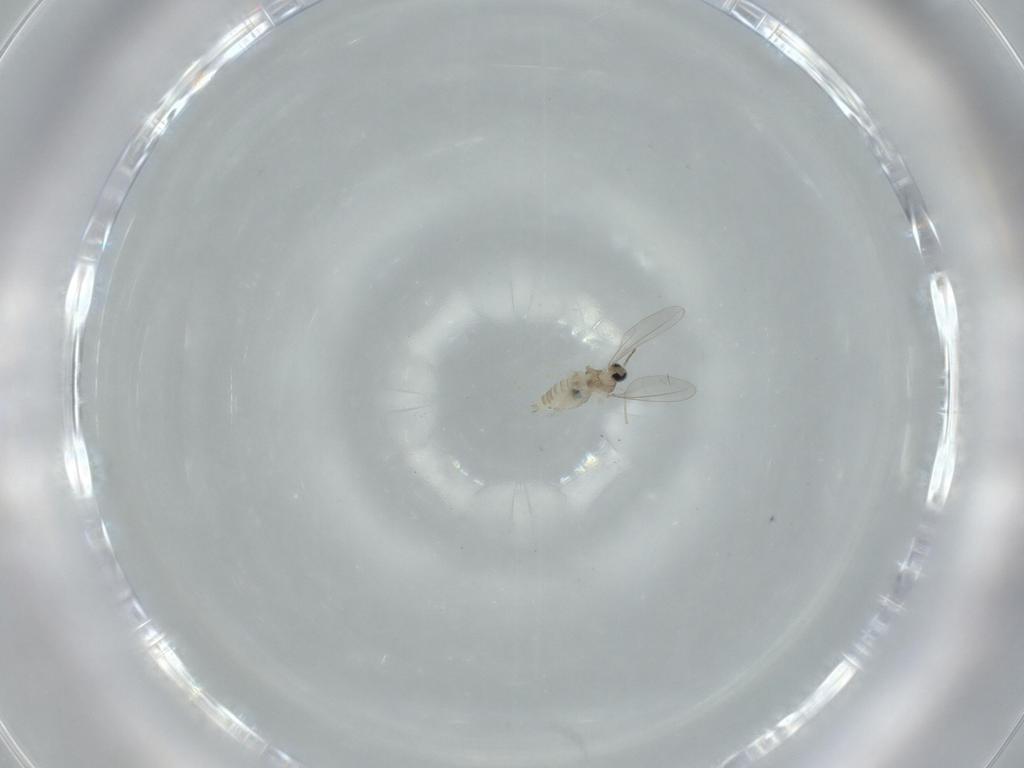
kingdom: Animalia
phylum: Arthropoda
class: Insecta
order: Diptera
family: Cecidomyiidae
